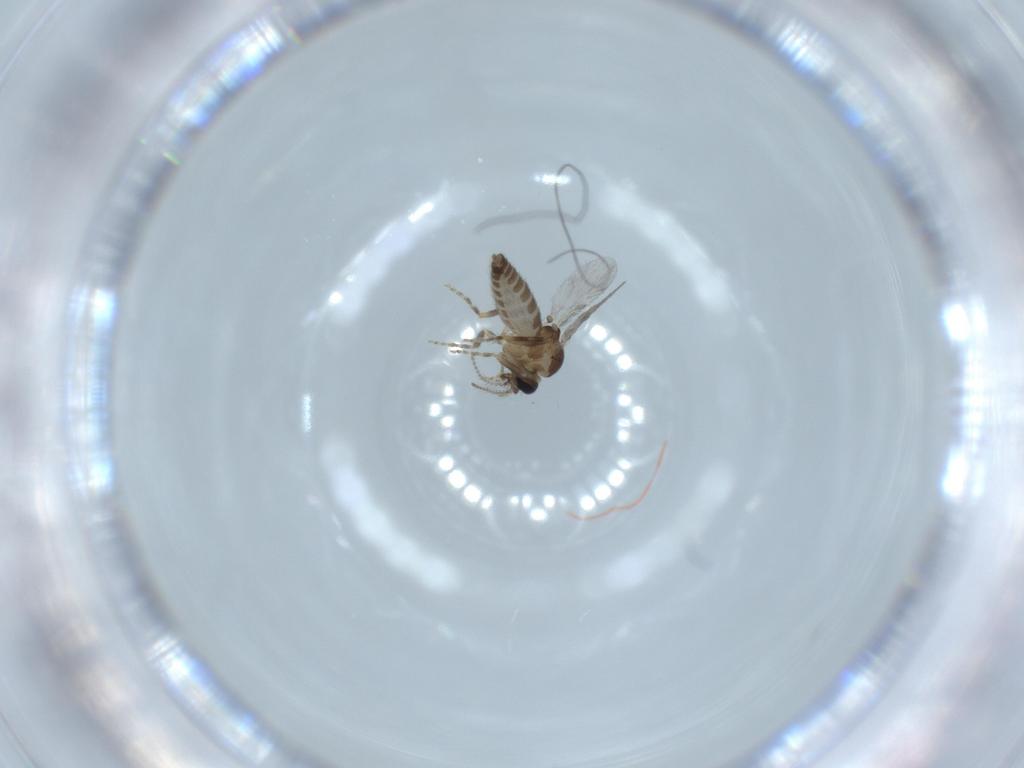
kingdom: Animalia
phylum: Arthropoda
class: Insecta
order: Diptera
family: Ceratopogonidae
